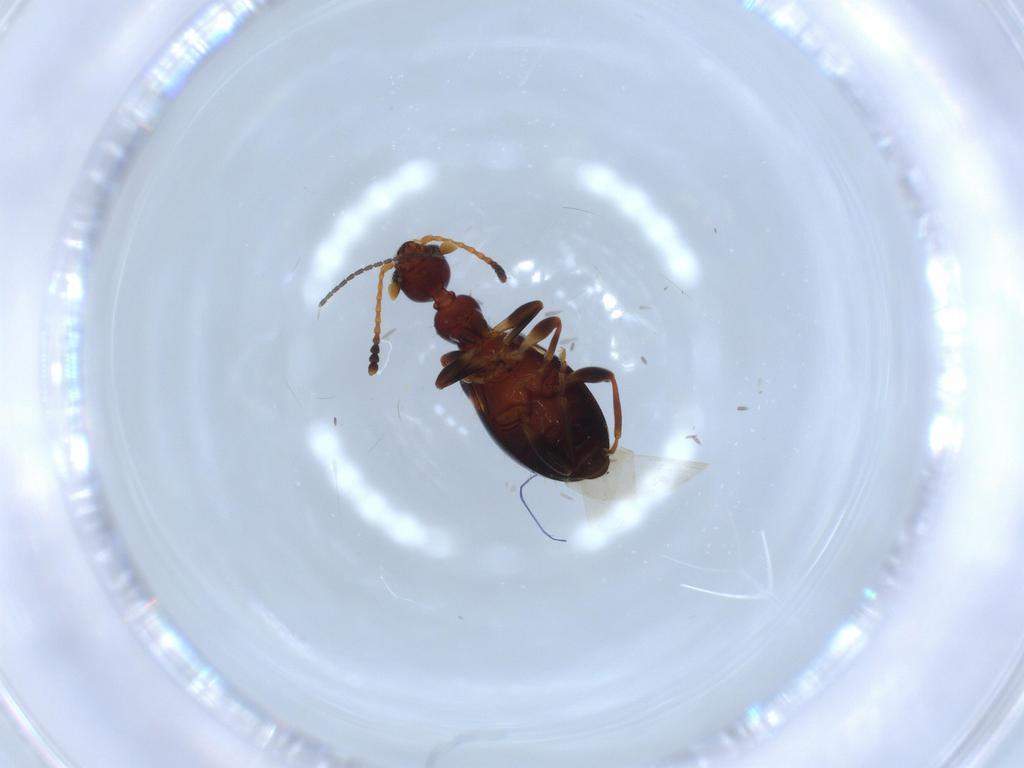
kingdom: Animalia
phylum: Arthropoda
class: Insecta
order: Coleoptera
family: Anthicidae
